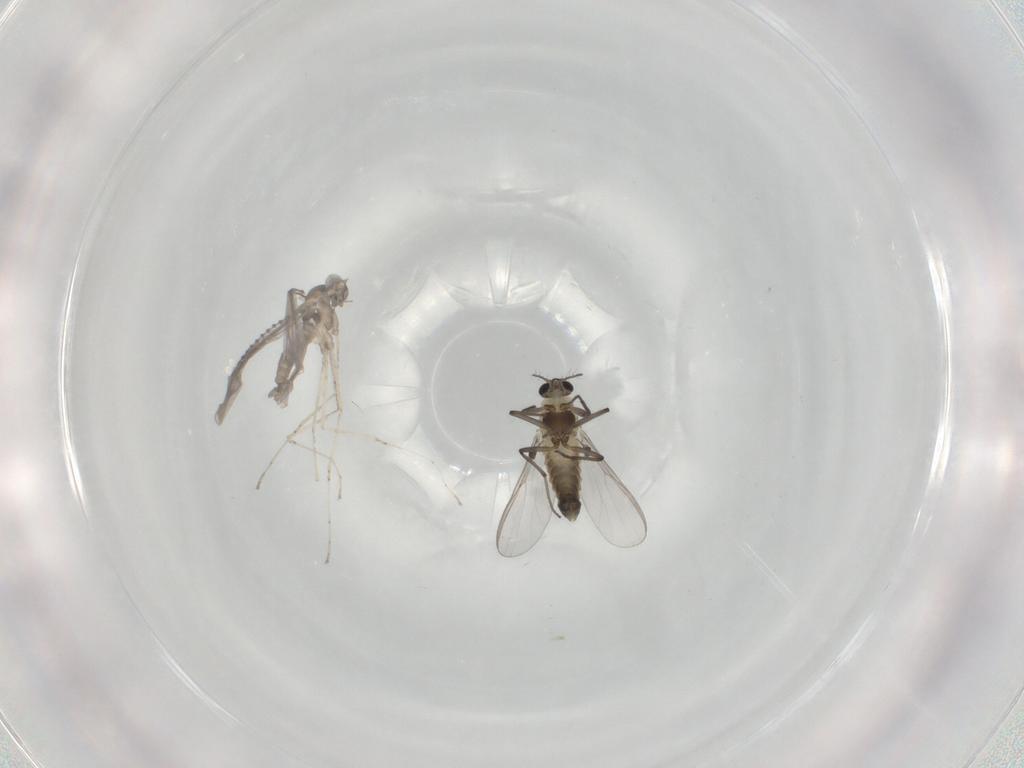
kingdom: Animalia
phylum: Arthropoda
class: Insecta
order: Diptera
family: Chironomidae
